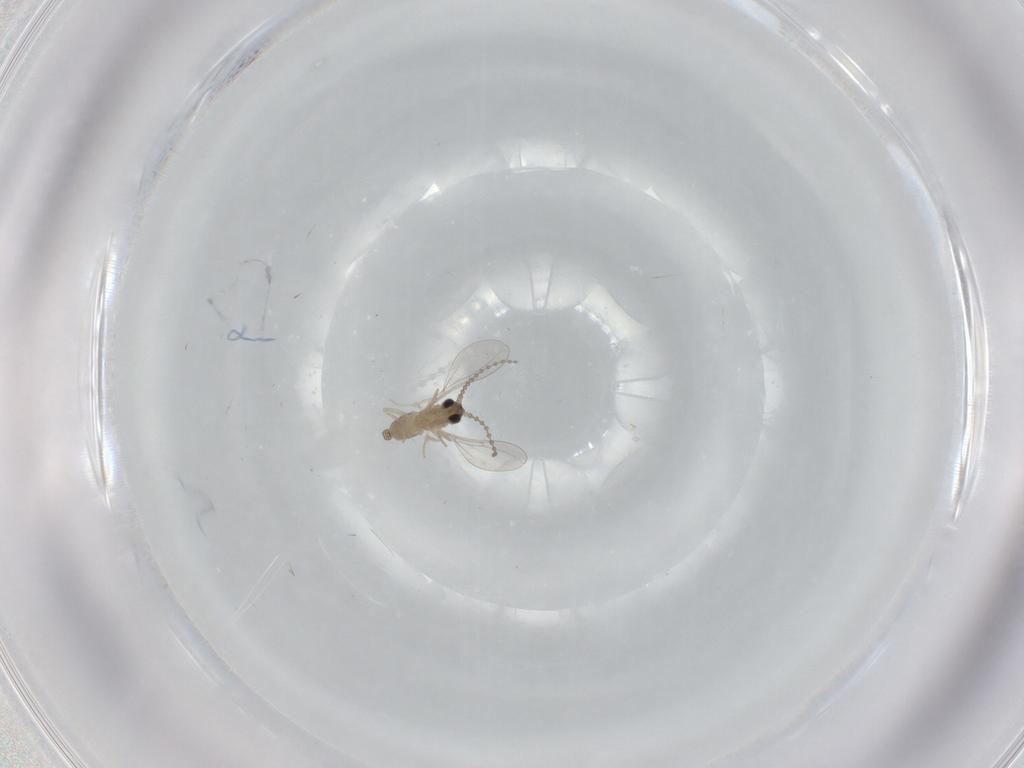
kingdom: Animalia
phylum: Arthropoda
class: Insecta
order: Diptera
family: Cecidomyiidae
